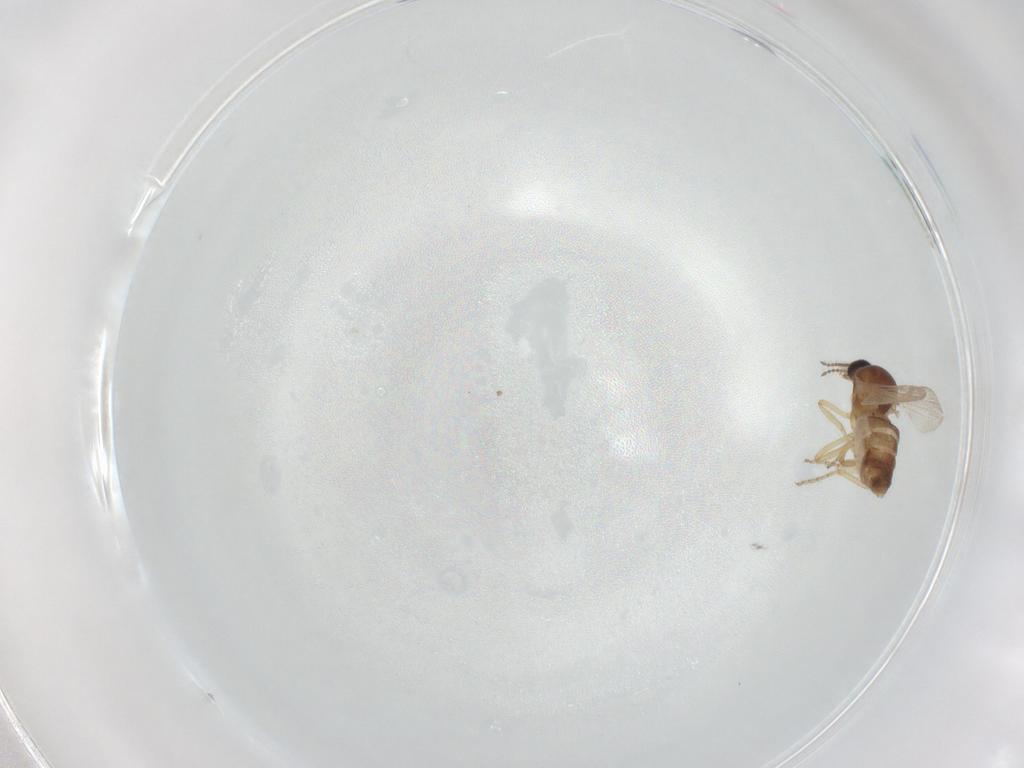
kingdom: Animalia
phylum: Arthropoda
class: Insecta
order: Diptera
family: Ceratopogonidae
